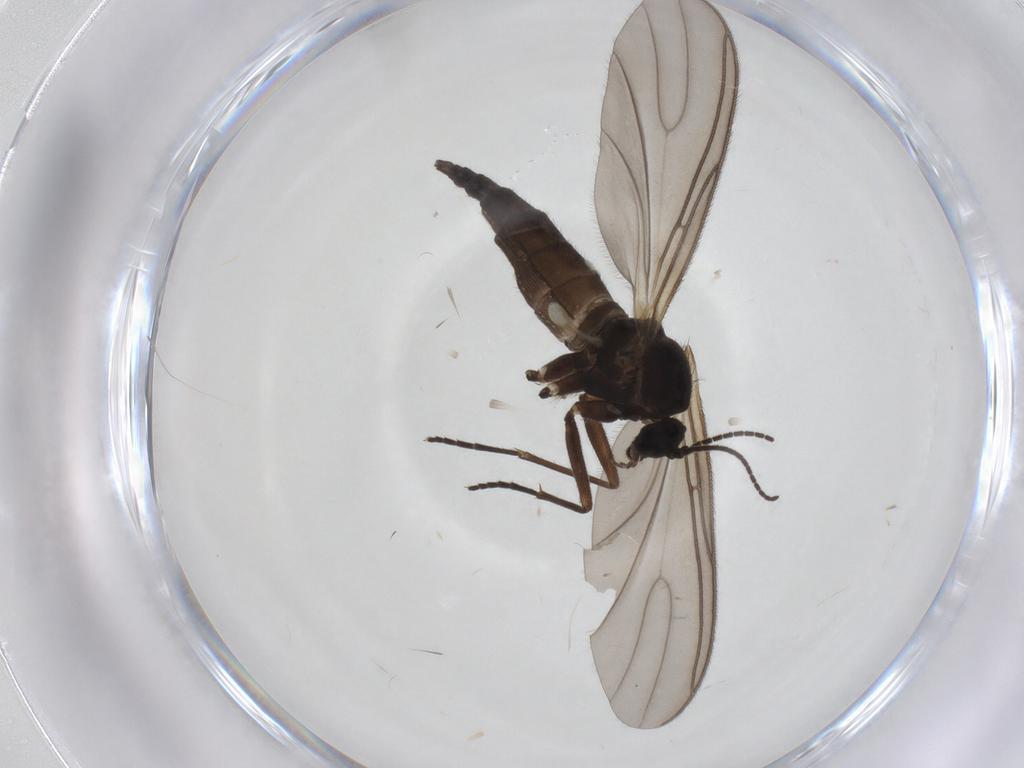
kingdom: Animalia
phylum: Arthropoda
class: Insecta
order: Diptera
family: Sciaridae
